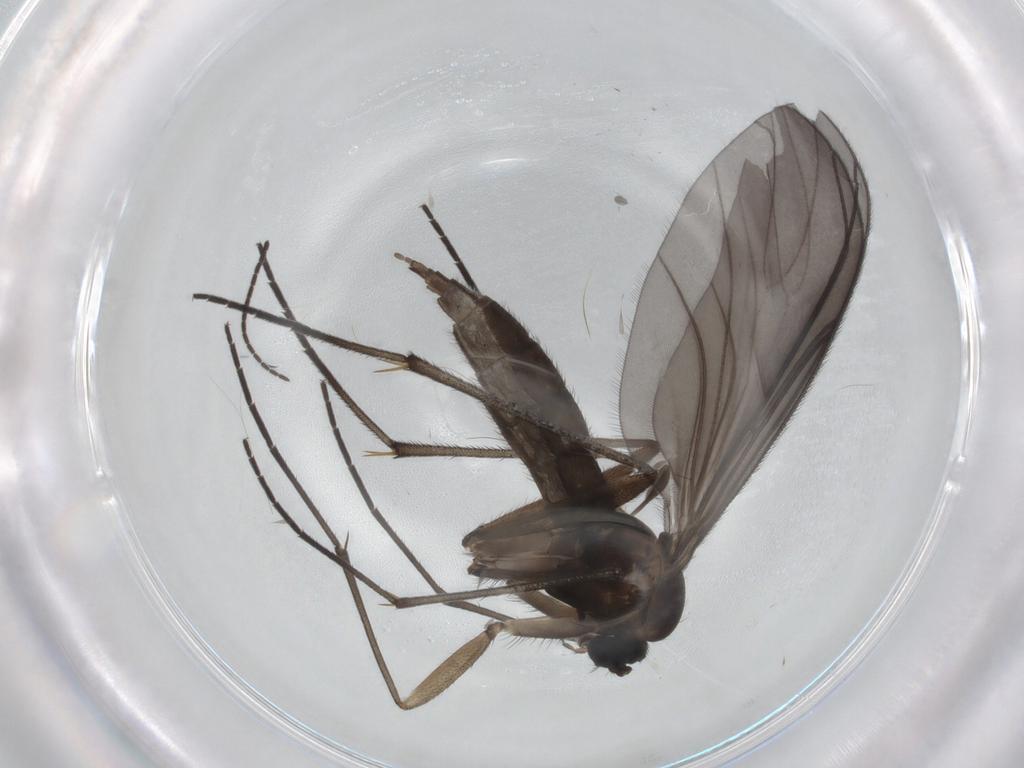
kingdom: Animalia
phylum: Arthropoda
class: Insecta
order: Diptera
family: Sciaridae
